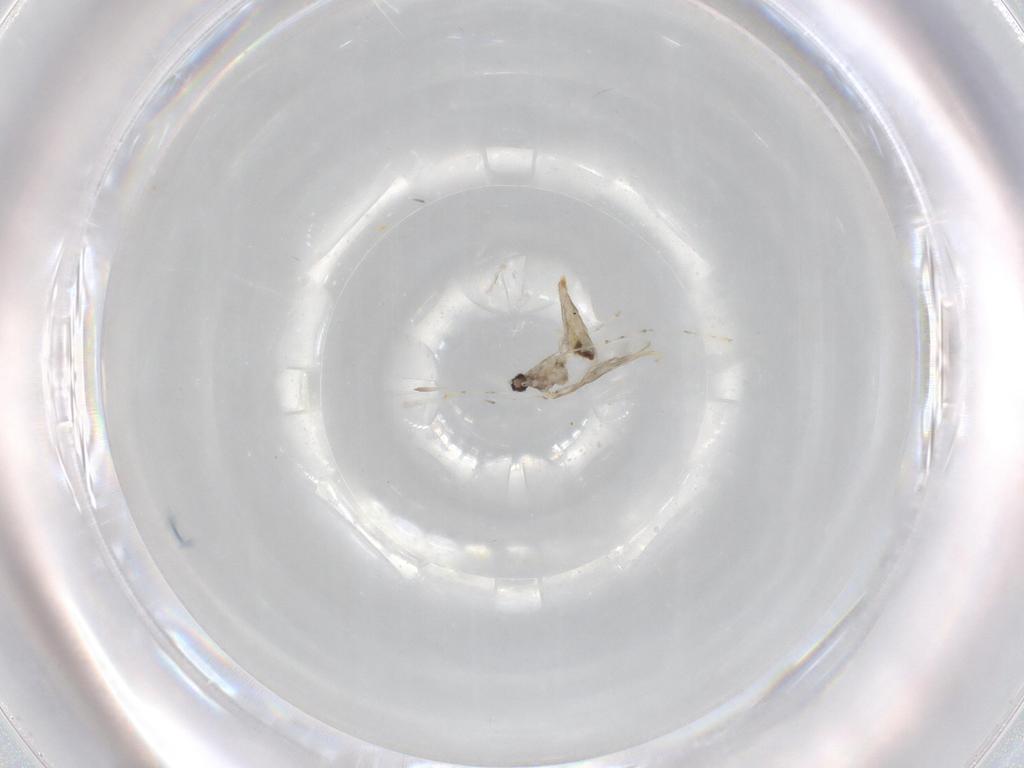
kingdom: Animalia
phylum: Arthropoda
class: Insecta
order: Diptera
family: Cecidomyiidae
